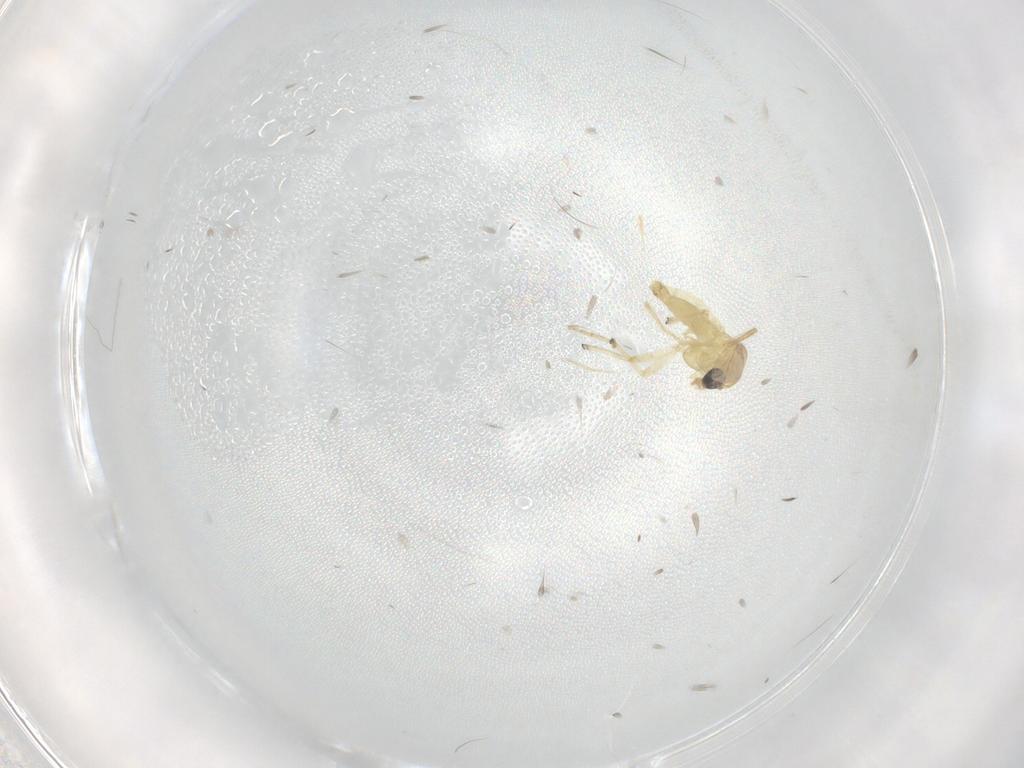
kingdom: Animalia
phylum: Arthropoda
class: Insecta
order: Diptera
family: Chironomidae
